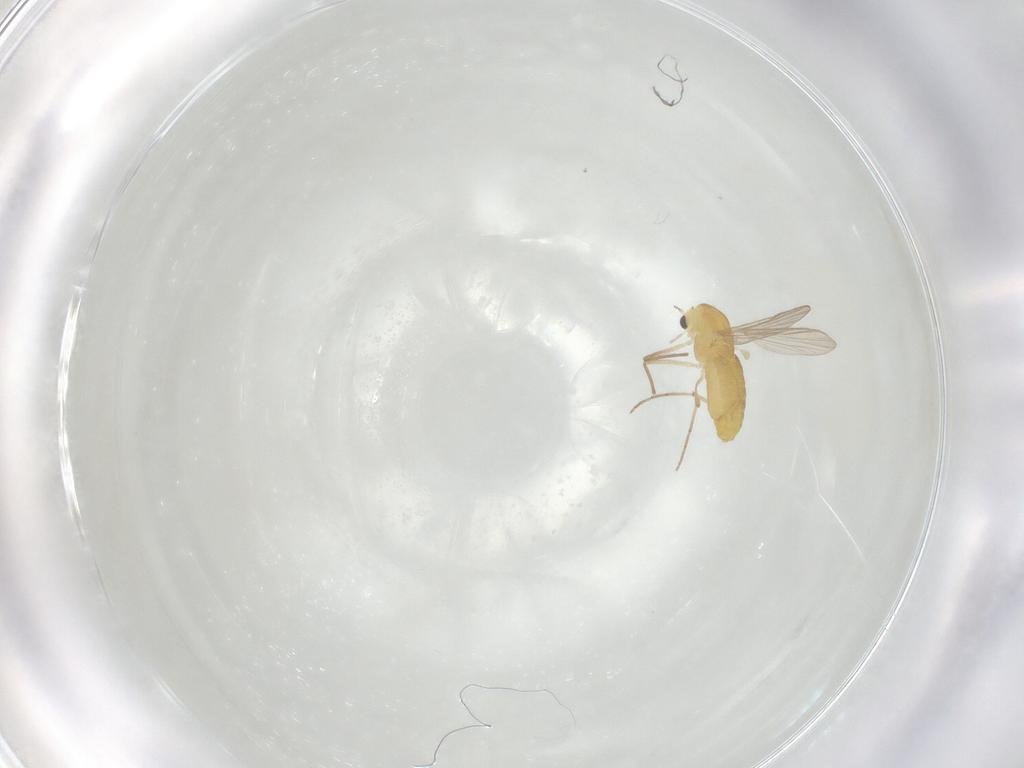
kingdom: Animalia
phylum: Arthropoda
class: Insecta
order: Diptera
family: Chironomidae
